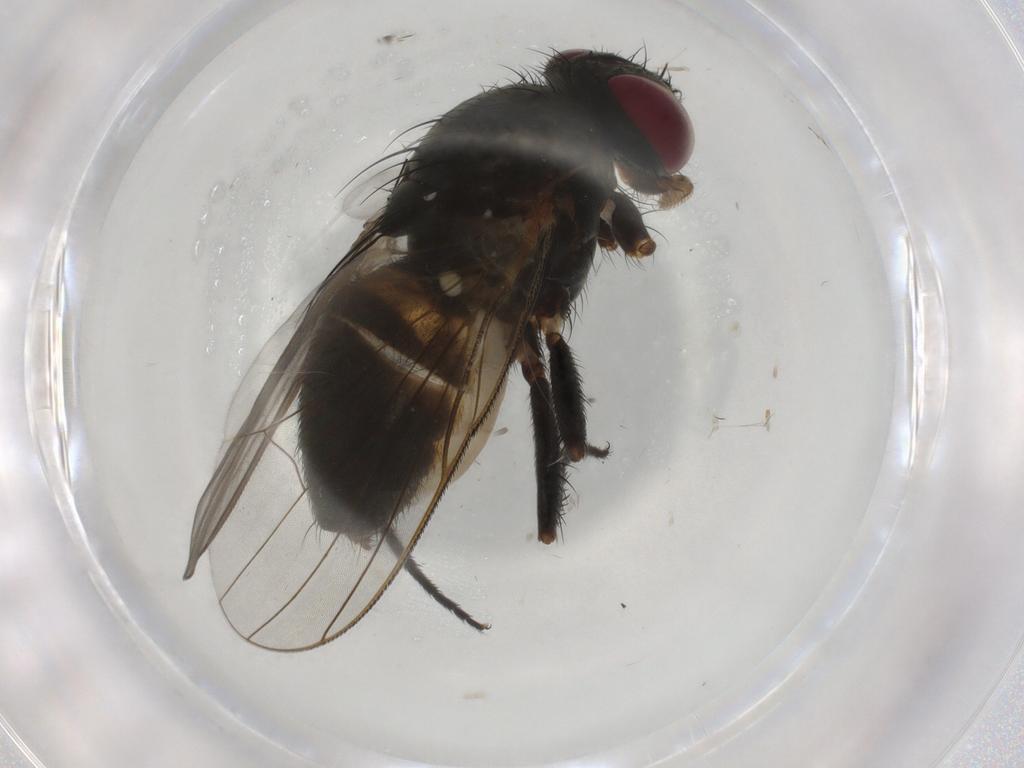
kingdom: Animalia
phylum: Arthropoda
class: Insecta
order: Diptera
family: Fannia
